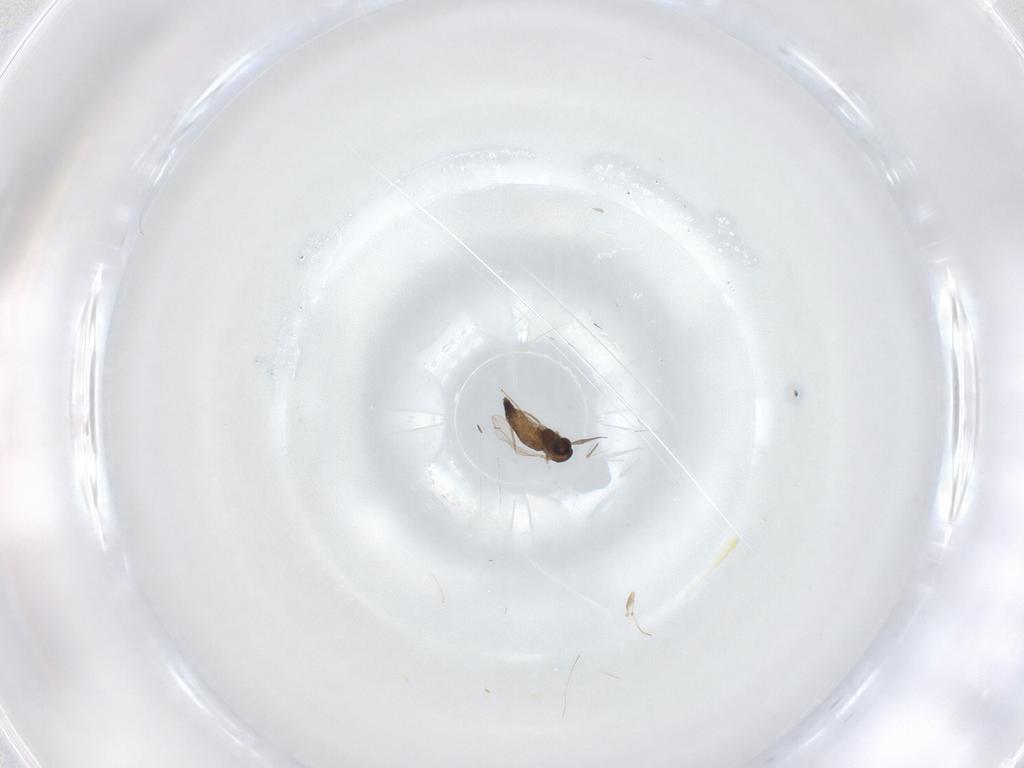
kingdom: Animalia
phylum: Arthropoda
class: Insecta
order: Diptera
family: Chironomidae
